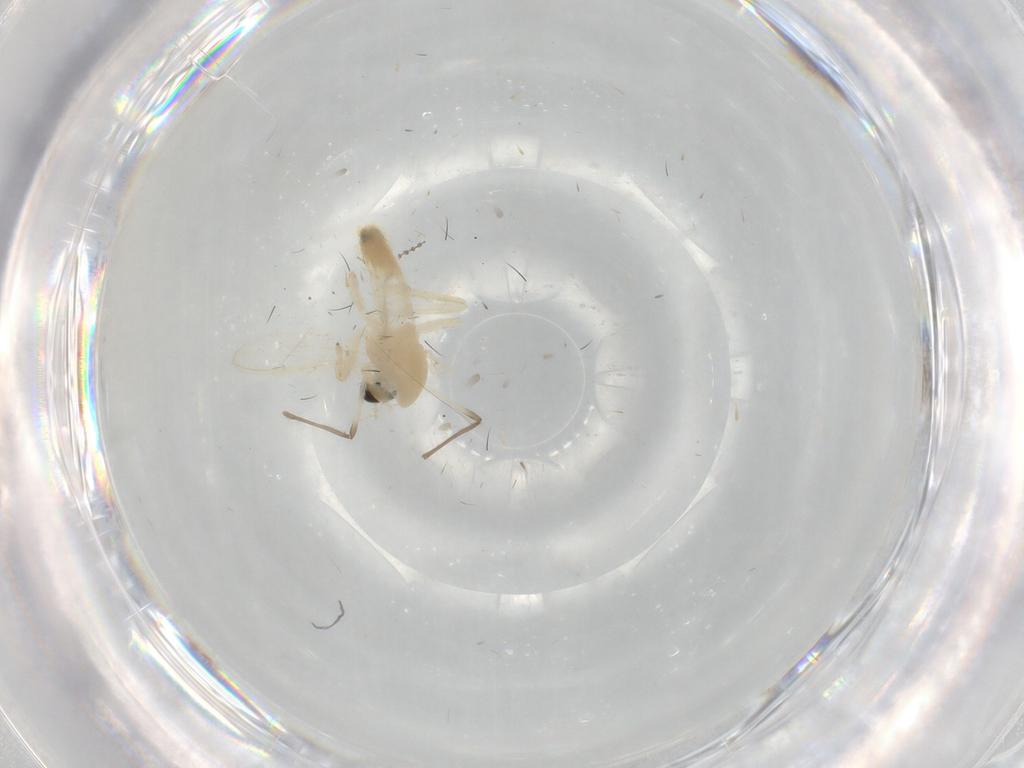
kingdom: Animalia
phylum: Arthropoda
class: Insecta
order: Diptera
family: Chironomidae
